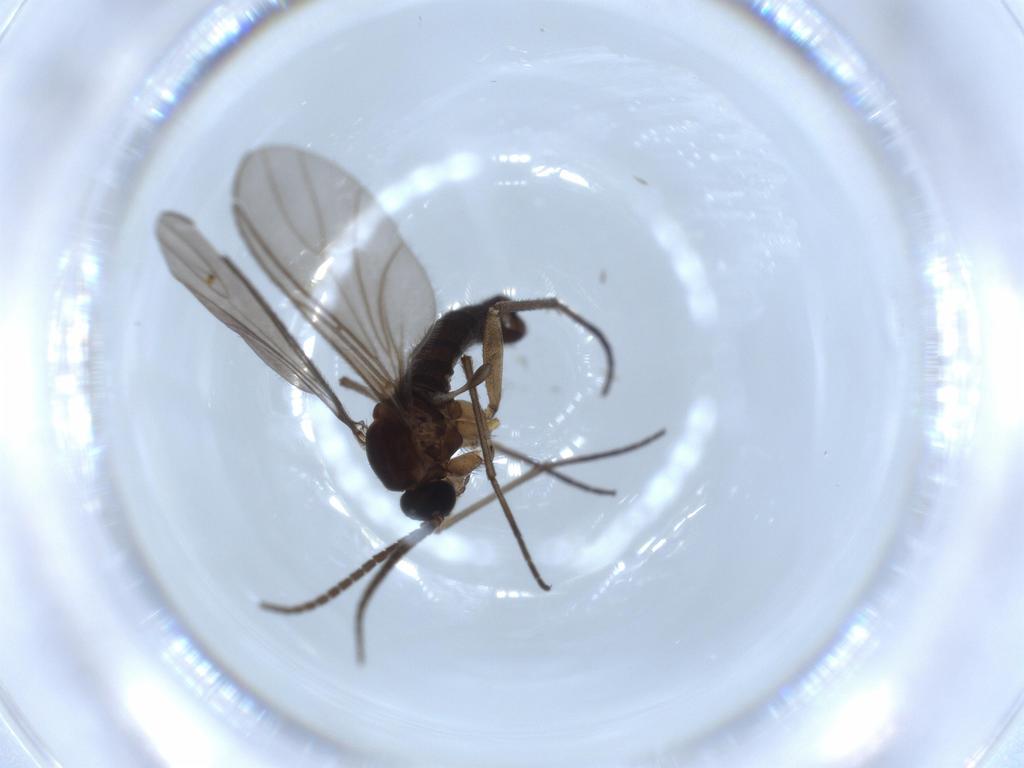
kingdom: Animalia
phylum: Arthropoda
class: Insecta
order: Diptera
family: Sciaridae
